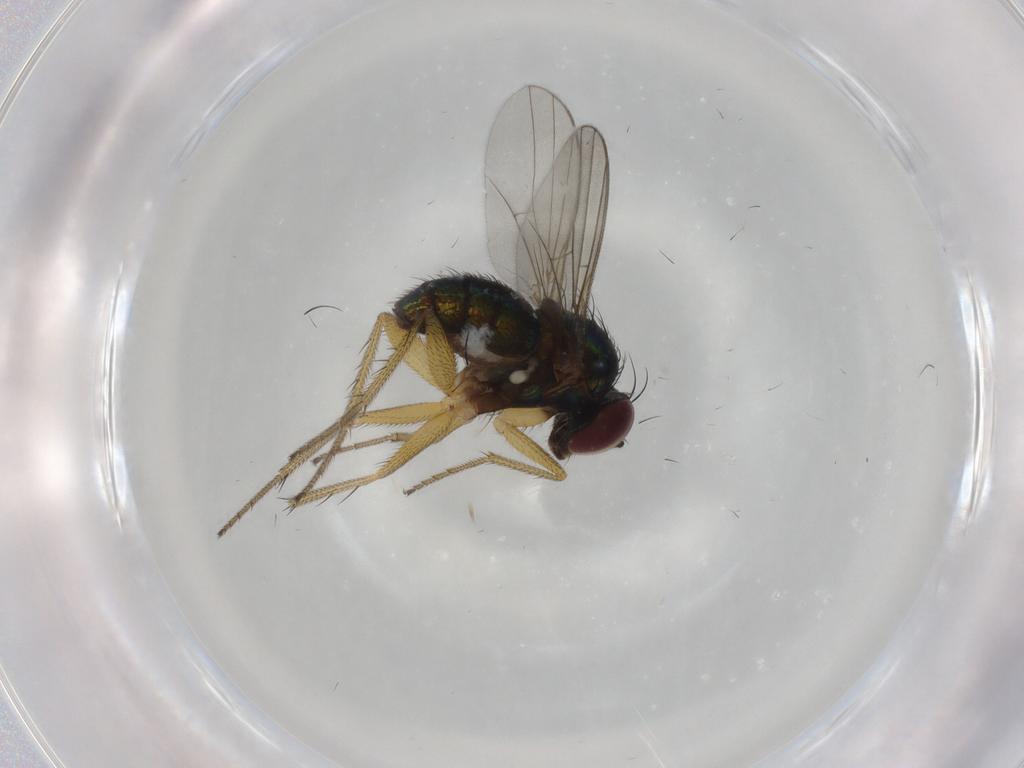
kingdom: Animalia
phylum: Arthropoda
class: Insecta
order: Diptera
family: Dolichopodidae
